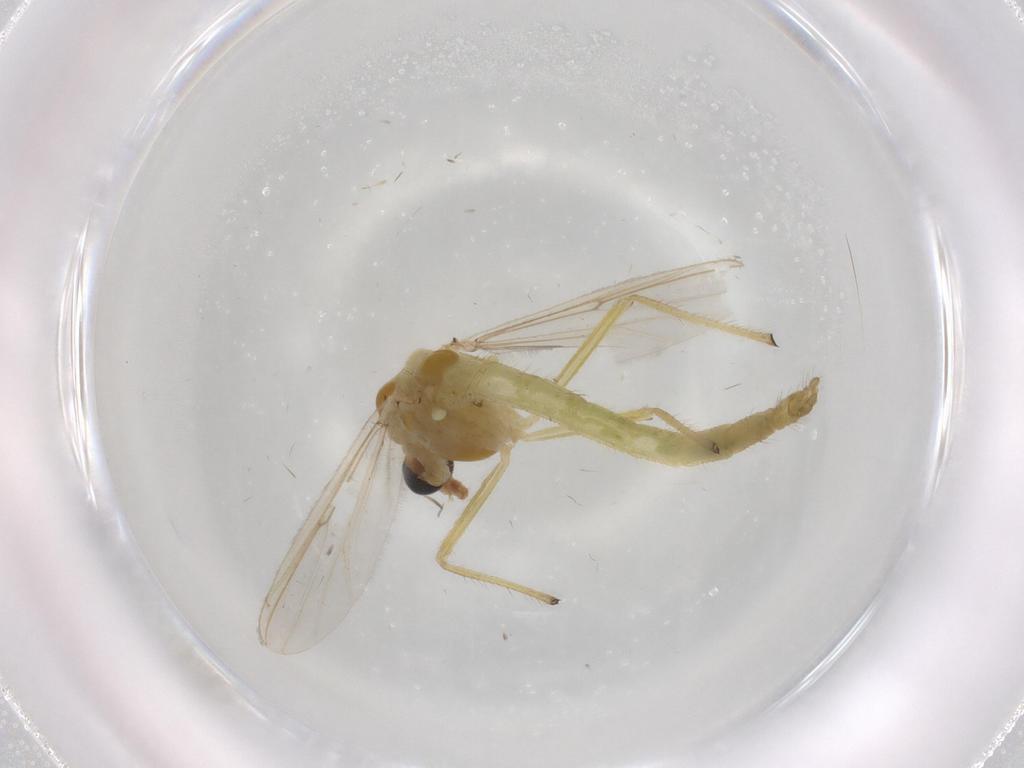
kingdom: Animalia
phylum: Arthropoda
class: Insecta
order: Diptera
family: Chironomidae
